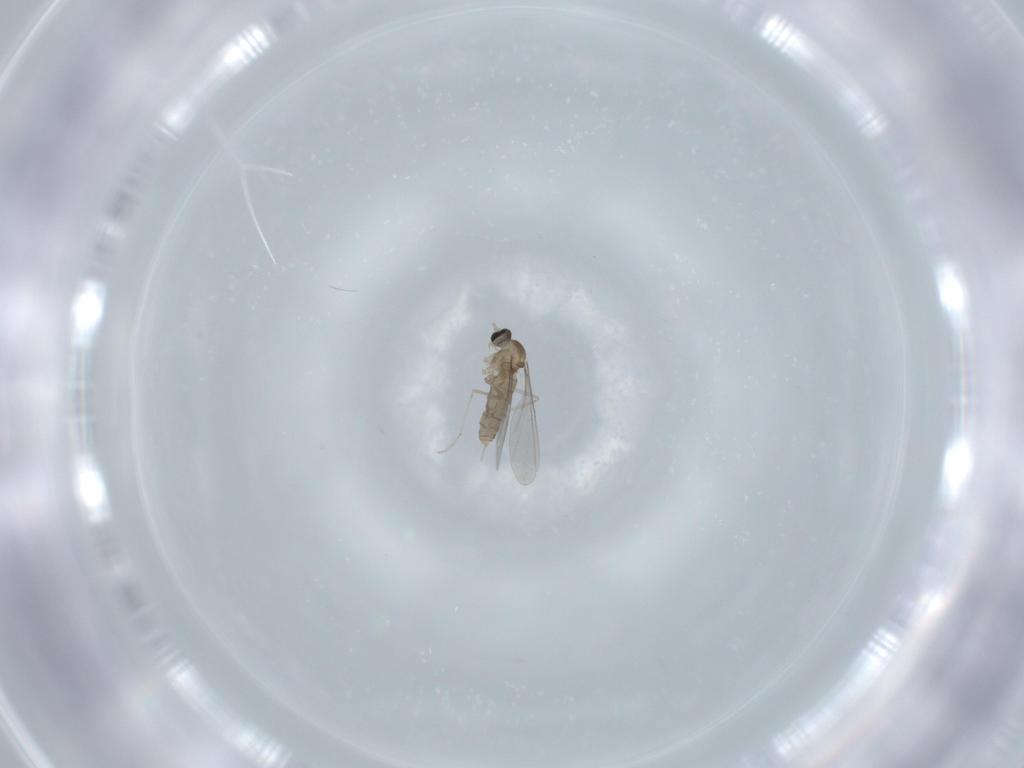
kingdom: Animalia
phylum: Arthropoda
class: Insecta
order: Diptera
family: Cecidomyiidae
